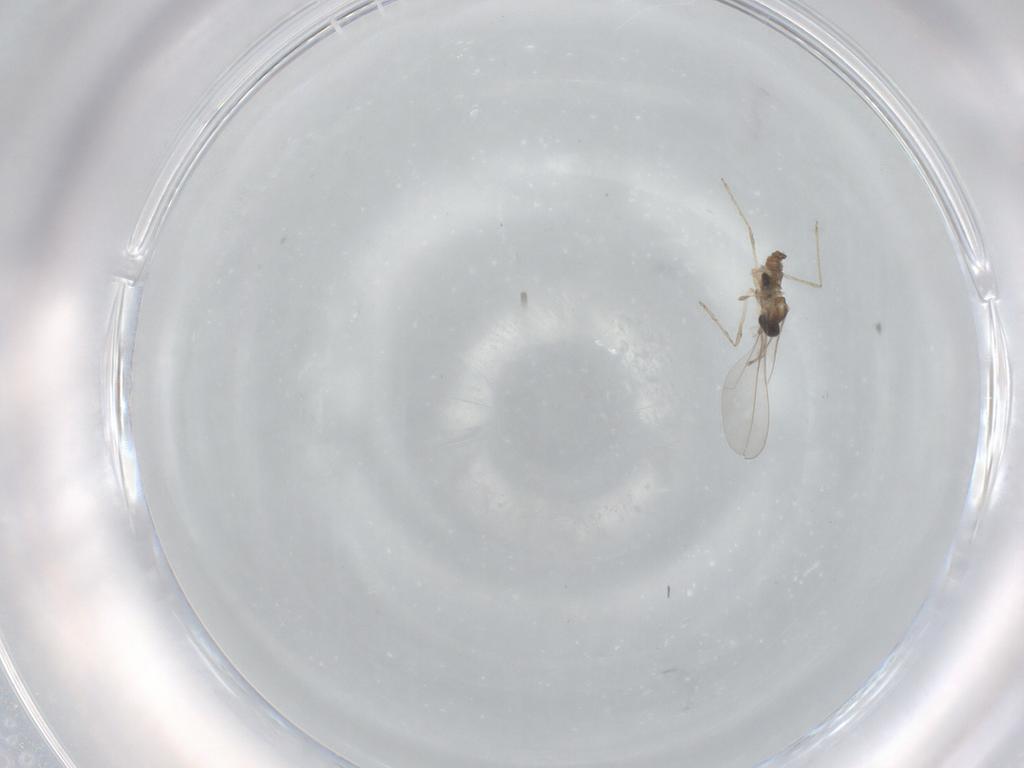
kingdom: Animalia
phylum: Arthropoda
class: Insecta
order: Diptera
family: Cecidomyiidae
